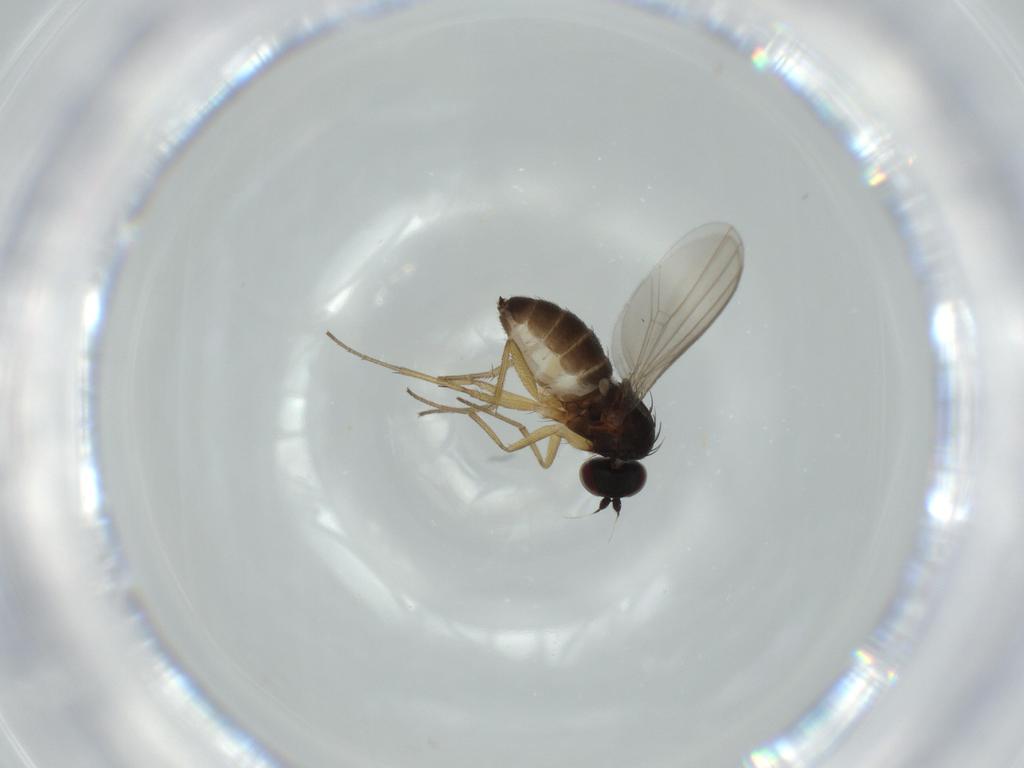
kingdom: Animalia
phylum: Arthropoda
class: Insecta
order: Diptera
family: Dolichopodidae
